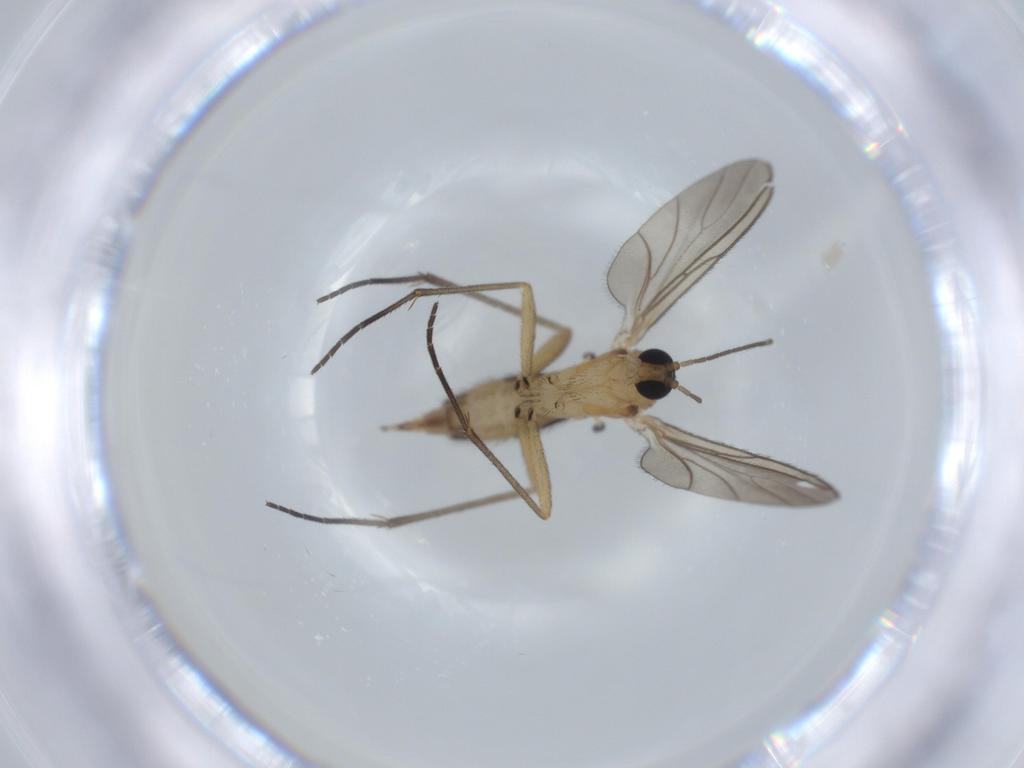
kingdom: Animalia
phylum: Arthropoda
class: Insecta
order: Diptera
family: Sciaridae
